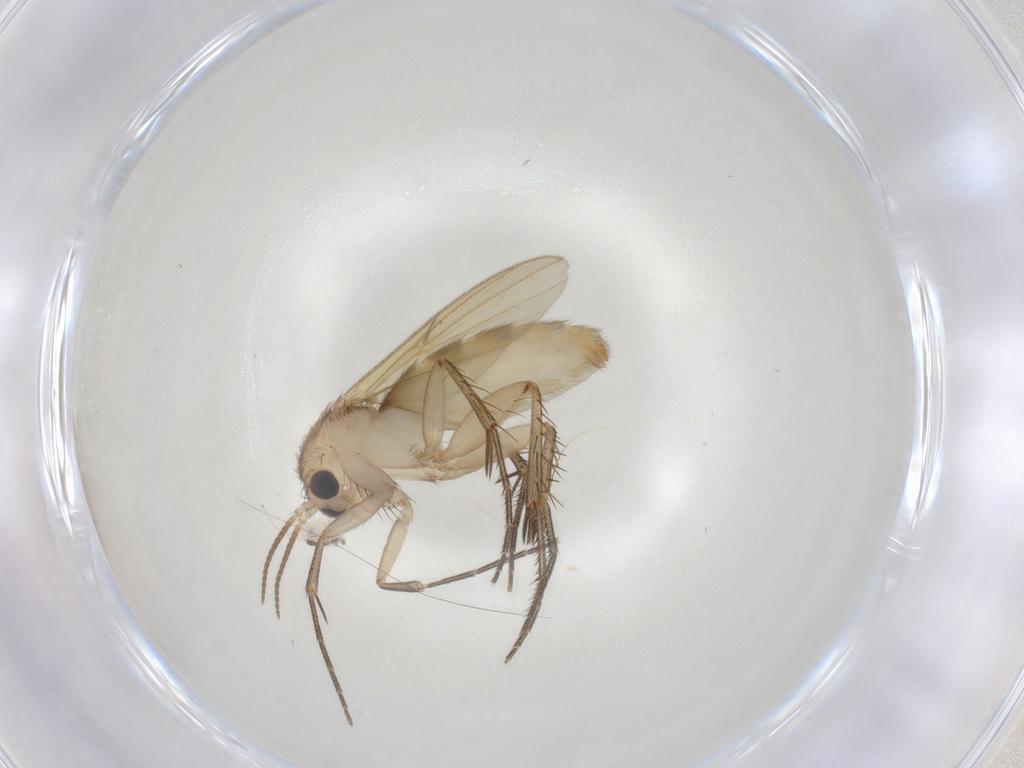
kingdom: Animalia
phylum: Arthropoda
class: Insecta
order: Diptera
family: Mycetophilidae
